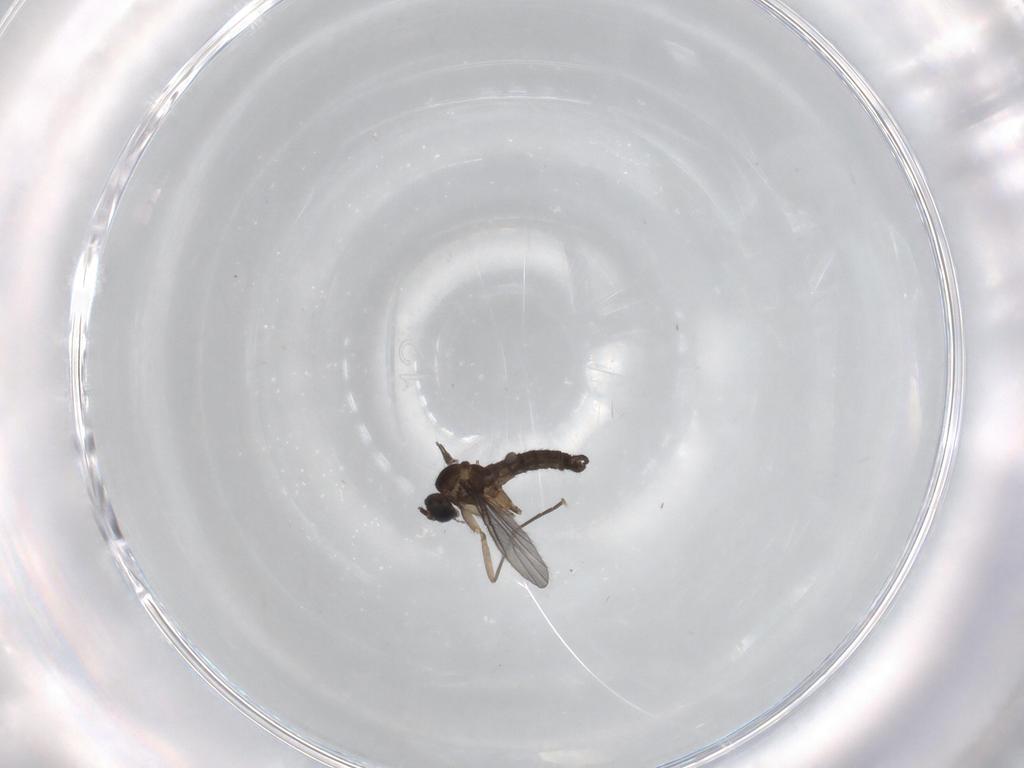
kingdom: Animalia
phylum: Arthropoda
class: Insecta
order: Diptera
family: Sciaridae
